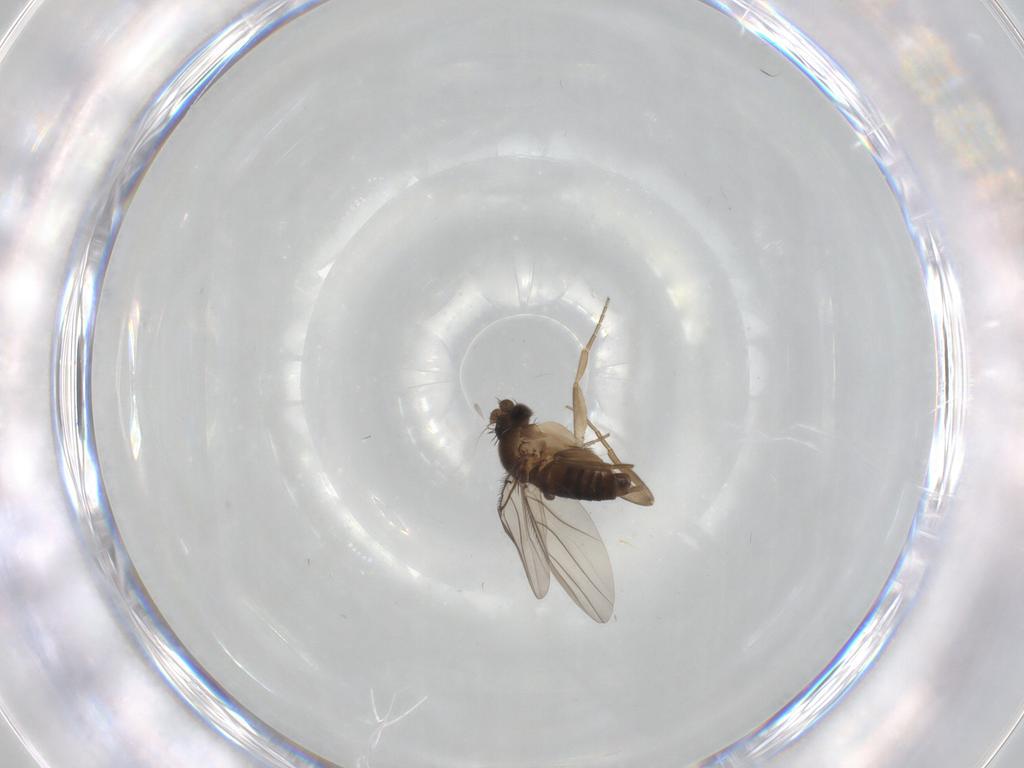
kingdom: Animalia
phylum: Arthropoda
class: Insecta
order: Diptera
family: Phoridae
